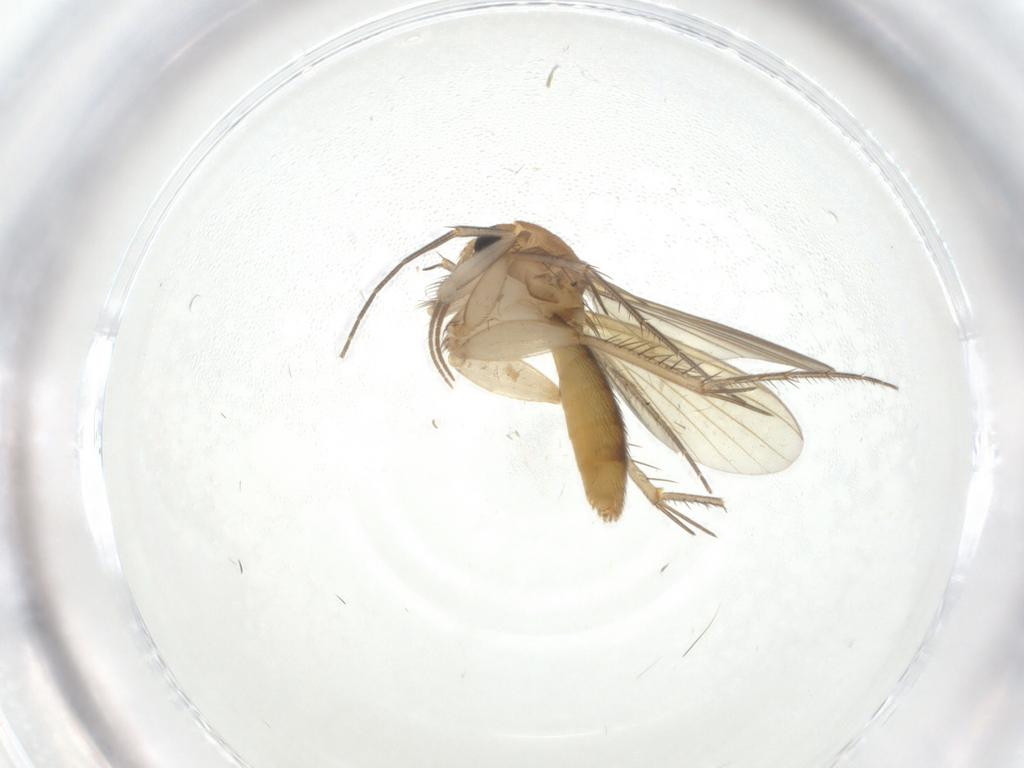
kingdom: Animalia
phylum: Arthropoda
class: Insecta
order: Diptera
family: Mycetophilidae
